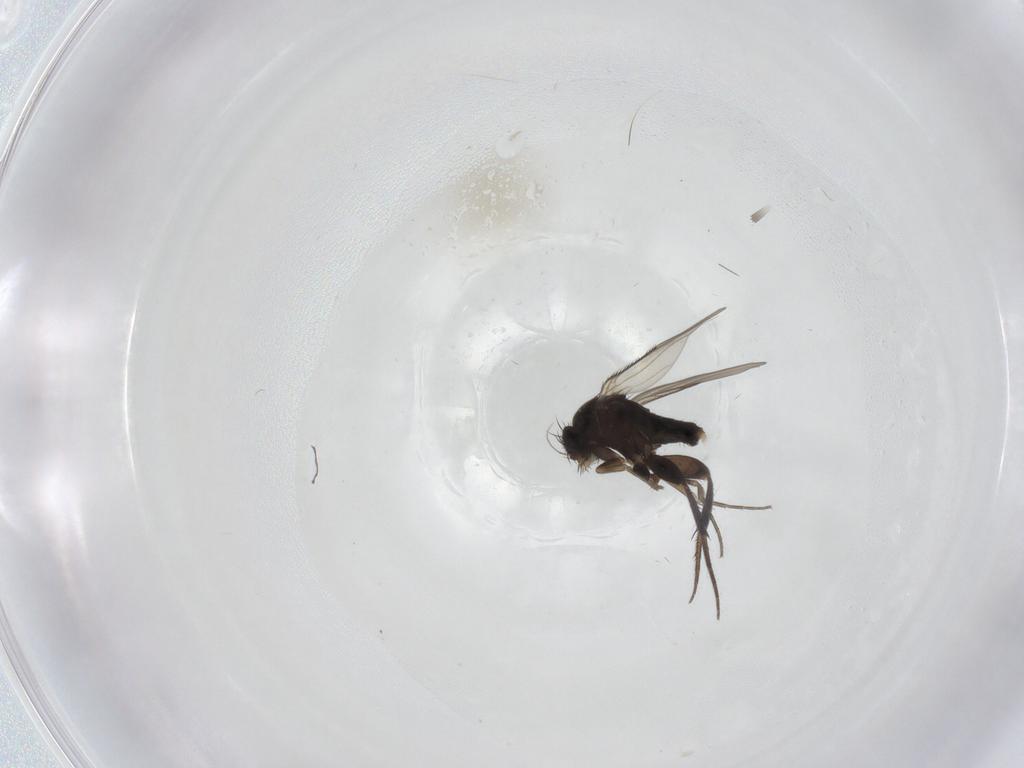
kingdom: Animalia
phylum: Arthropoda
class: Insecta
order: Diptera
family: Phoridae
